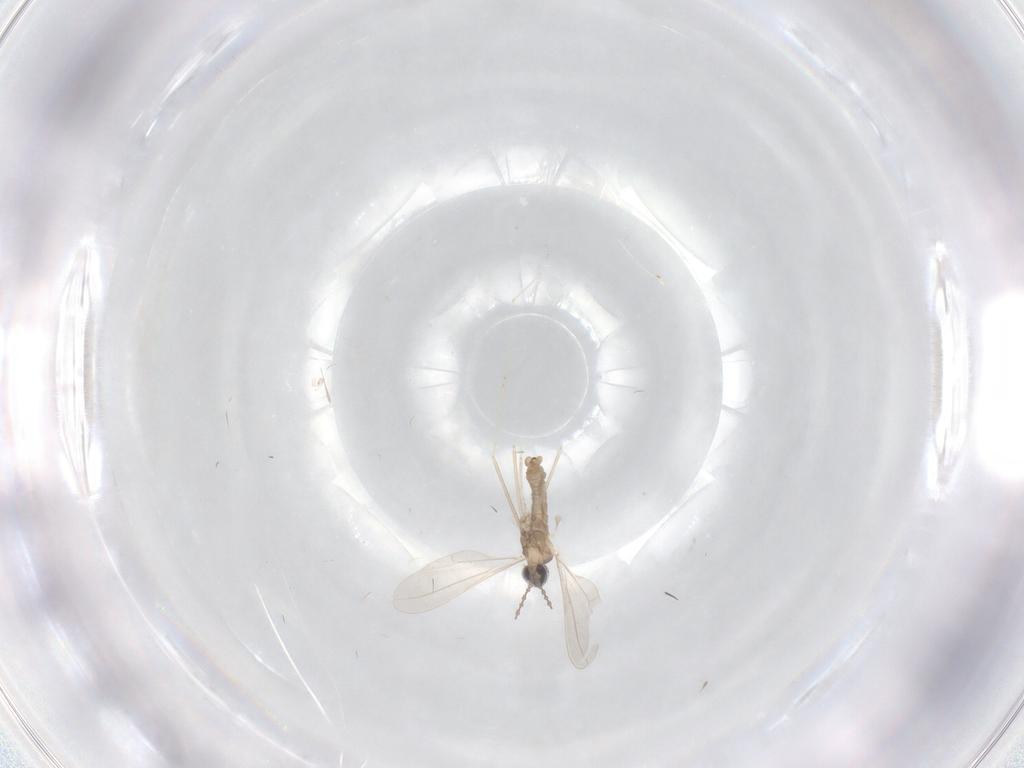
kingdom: Animalia
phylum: Arthropoda
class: Insecta
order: Diptera
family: Cecidomyiidae
